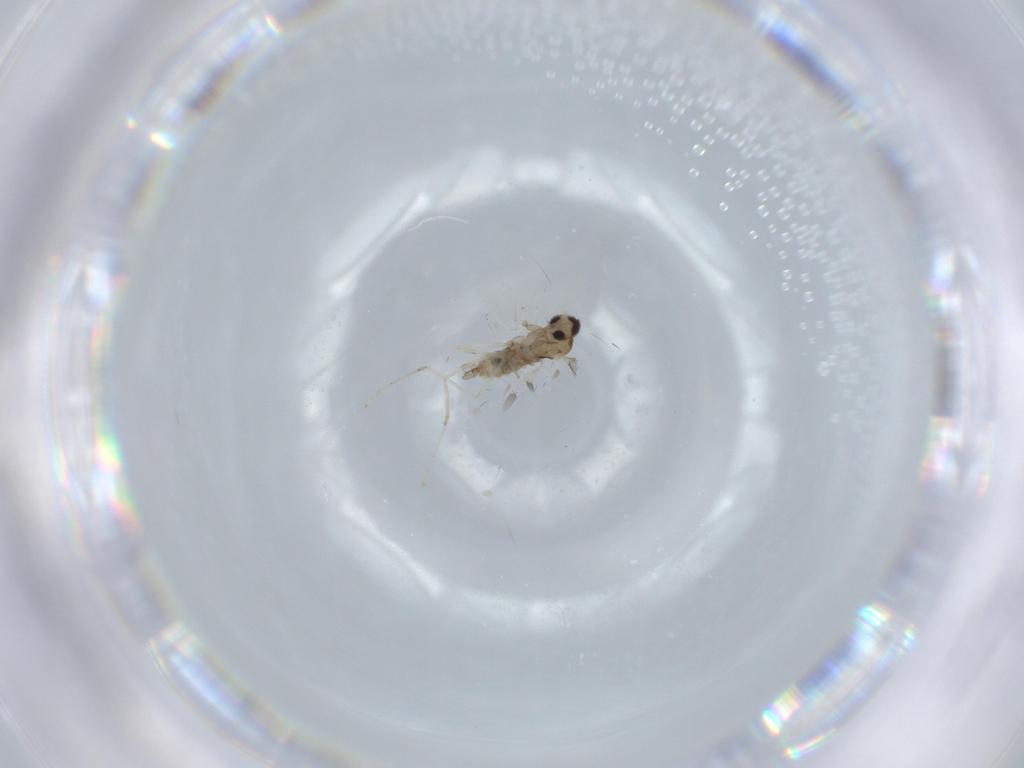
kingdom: Animalia
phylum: Arthropoda
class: Insecta
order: Diptera
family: Cecidomyiidae
